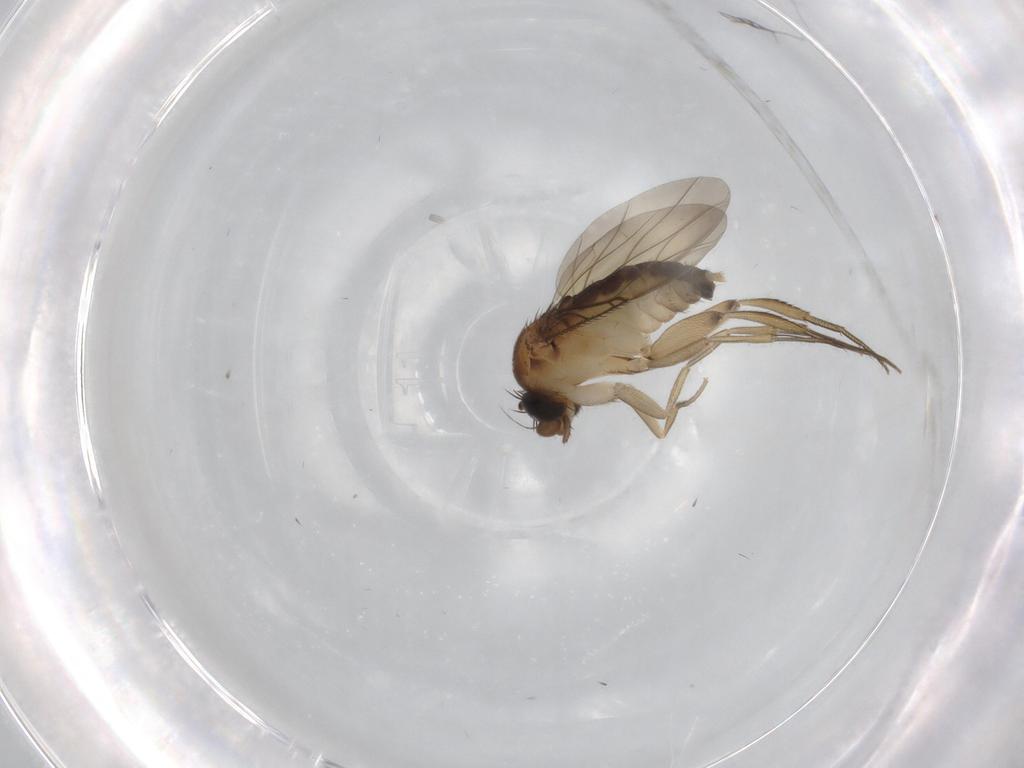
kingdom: Animalia
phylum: Arthropoda
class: Insecta
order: Diptera
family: Phoridae
